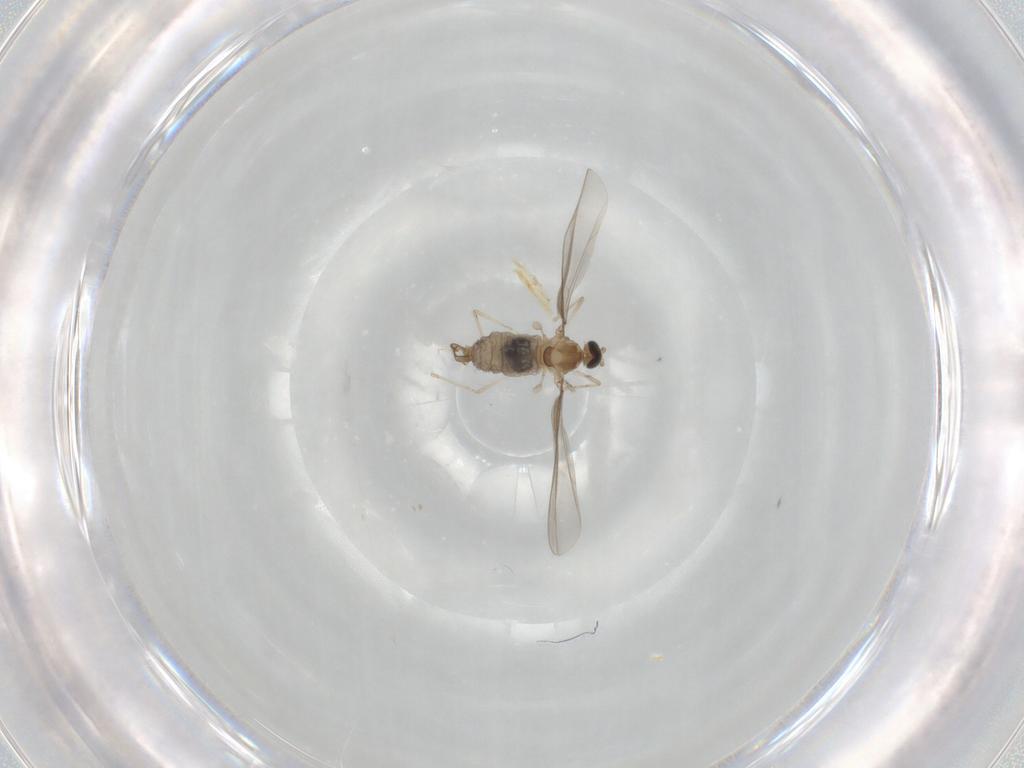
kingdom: Animalia
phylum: Arthropoda
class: Insecta
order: Diptera
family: Cecidomyiidae
